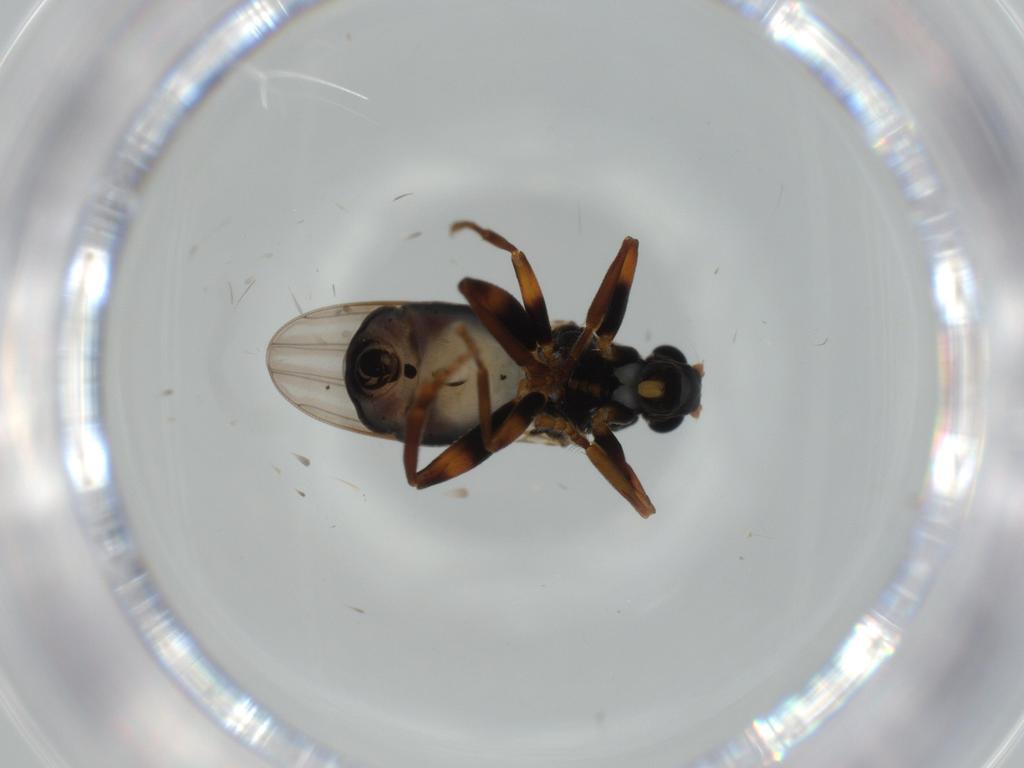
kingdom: Animalia
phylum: Arthropoda
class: Insecta
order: Diptera
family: Sphaeroceridae
